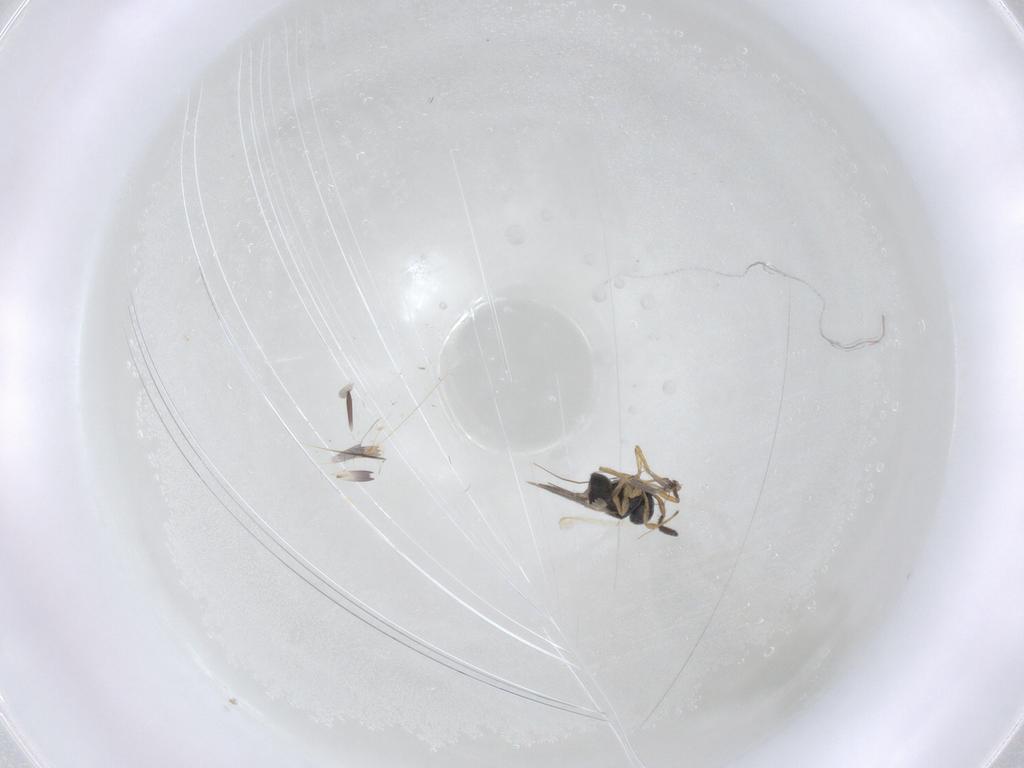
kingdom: Animalia
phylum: Arthropoda
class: Insecta
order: Hymenoptera
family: Scelionidae
